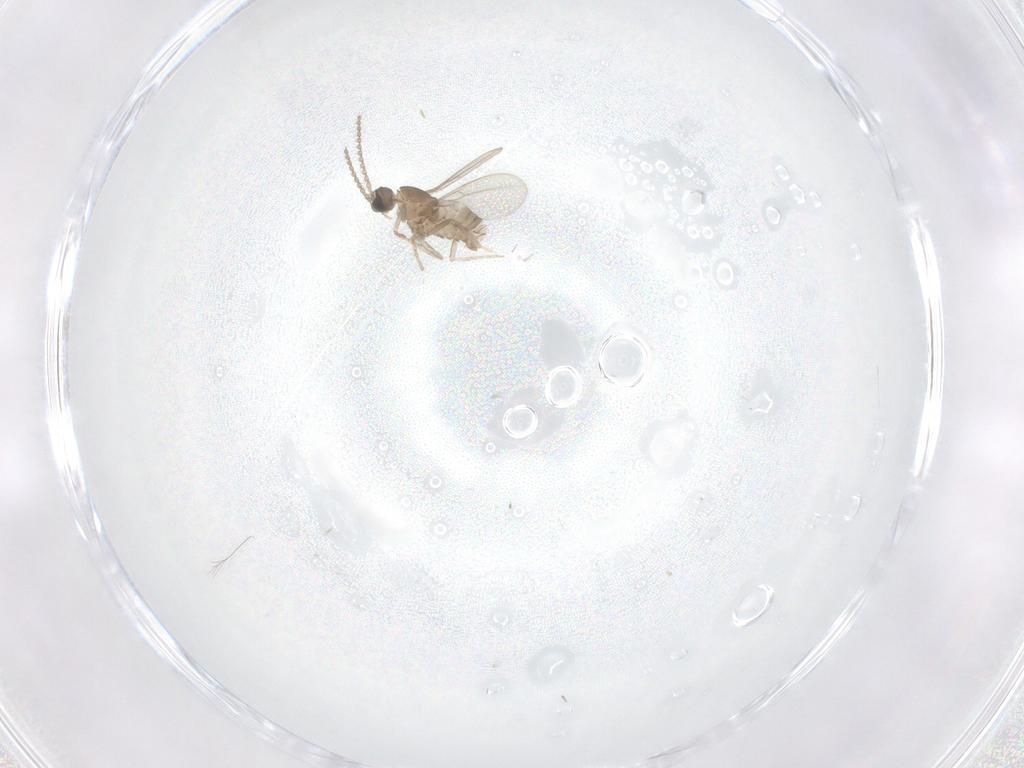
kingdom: Animalia
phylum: Arthropoda
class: Insecta
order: Diptera
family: Cecidomyiidae
